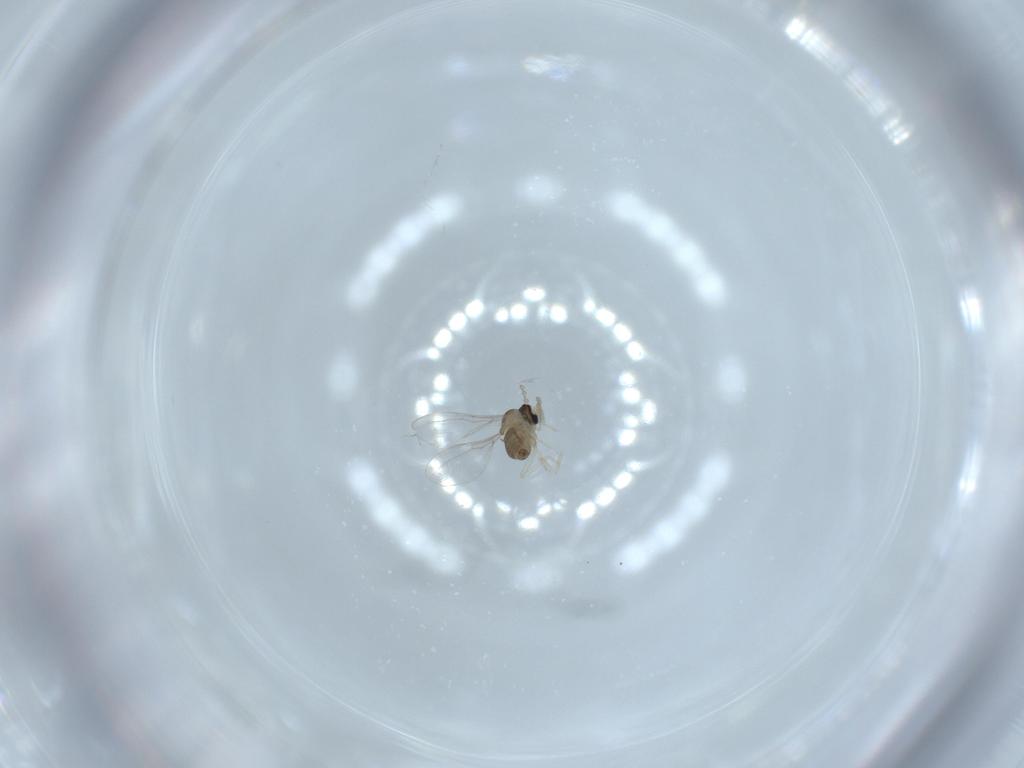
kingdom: Animalia
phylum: Arthropoda
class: Insecta
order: Diptera
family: Cecidomyiidae
